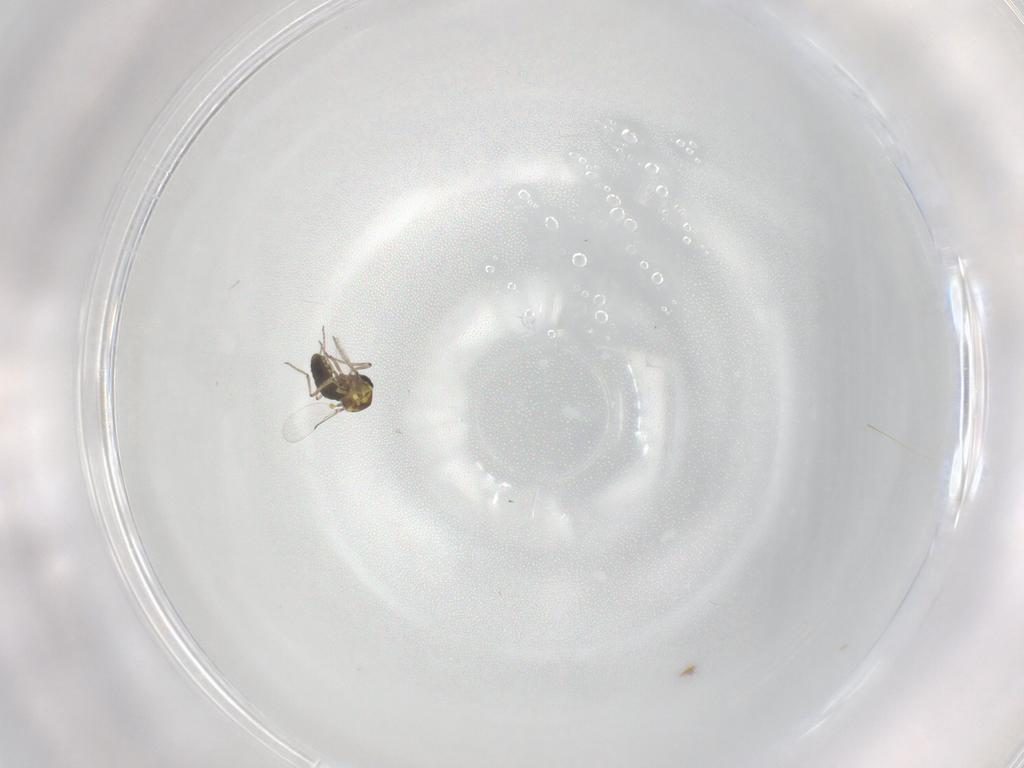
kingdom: Animalia
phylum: Arthropoda
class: Insecta
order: Diptera
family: Ceratopogonidae
